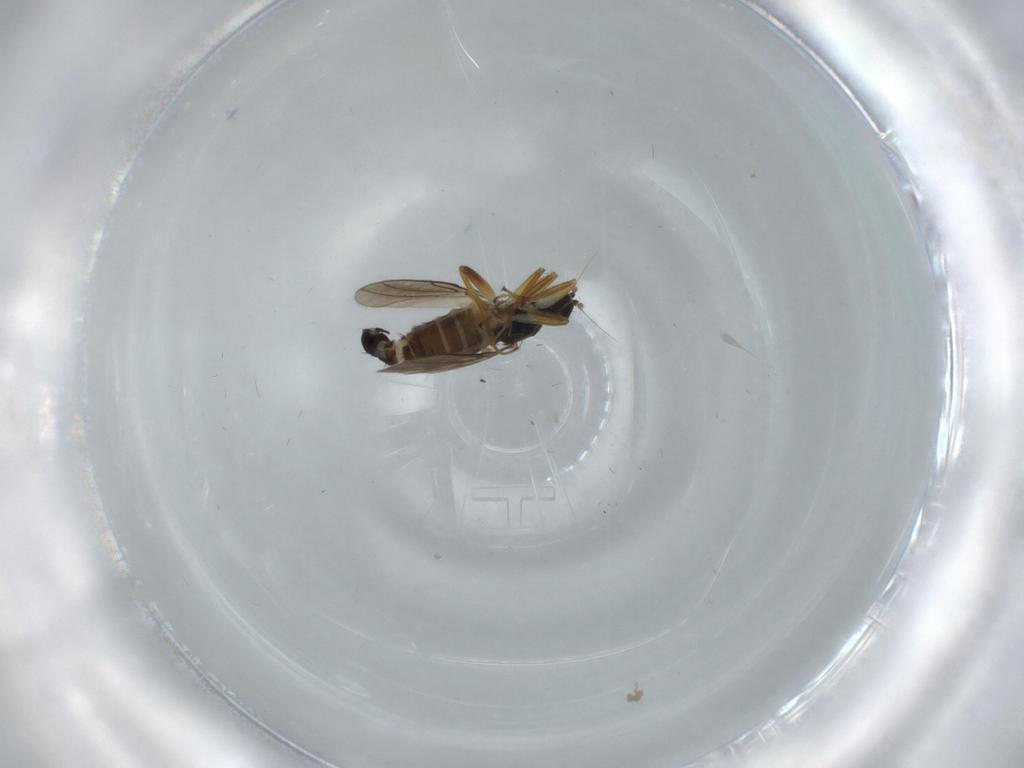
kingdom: Animalia
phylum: Arthropoda
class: Insecta
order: Diptera
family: Hybotidae
